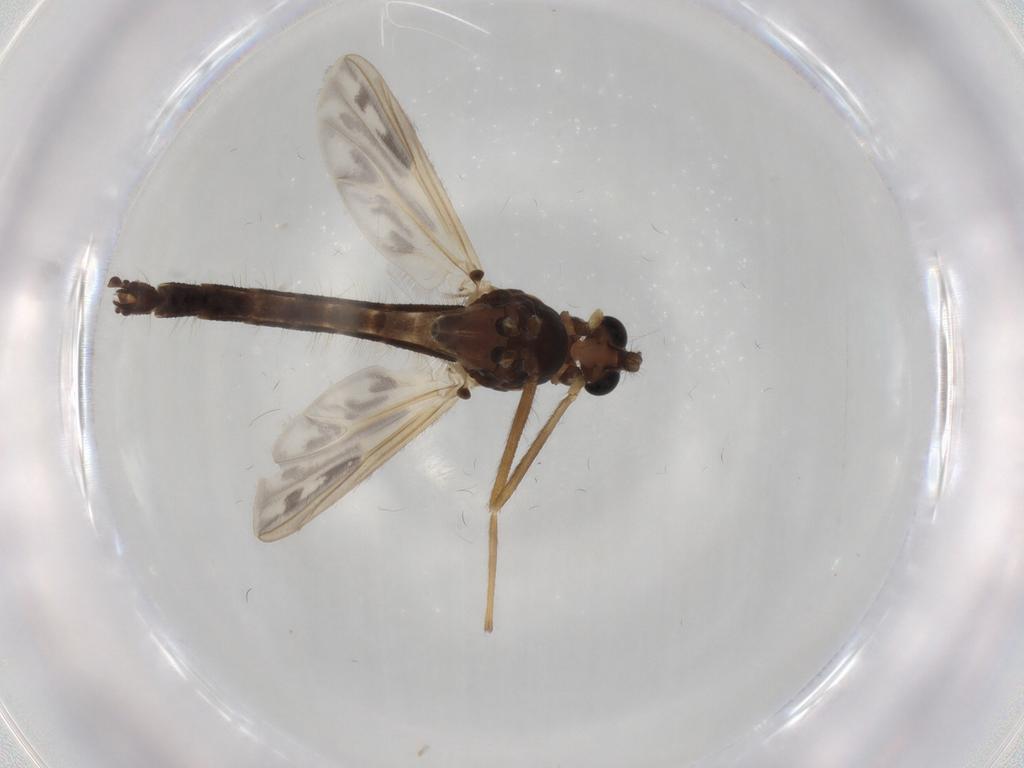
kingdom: Animalia
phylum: Arthropoda
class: Insecta
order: Diptera
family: Chironomidae
